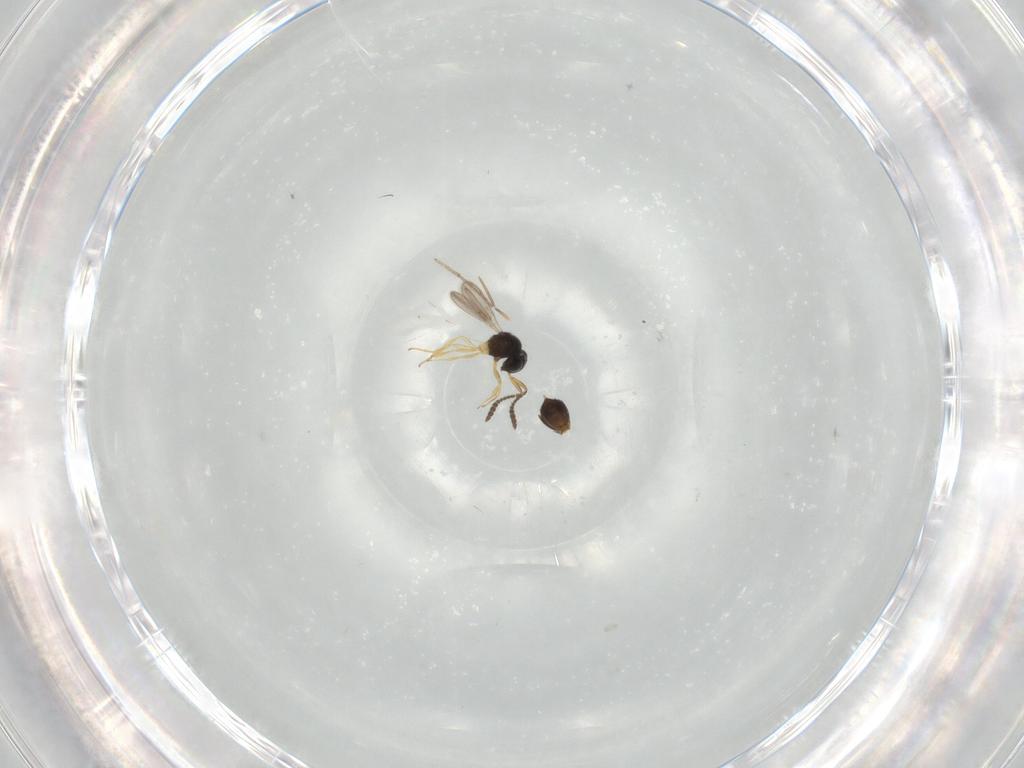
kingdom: Animalia
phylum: Arthropoda
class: Insecta
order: Hymenoptera
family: Scelionidae
